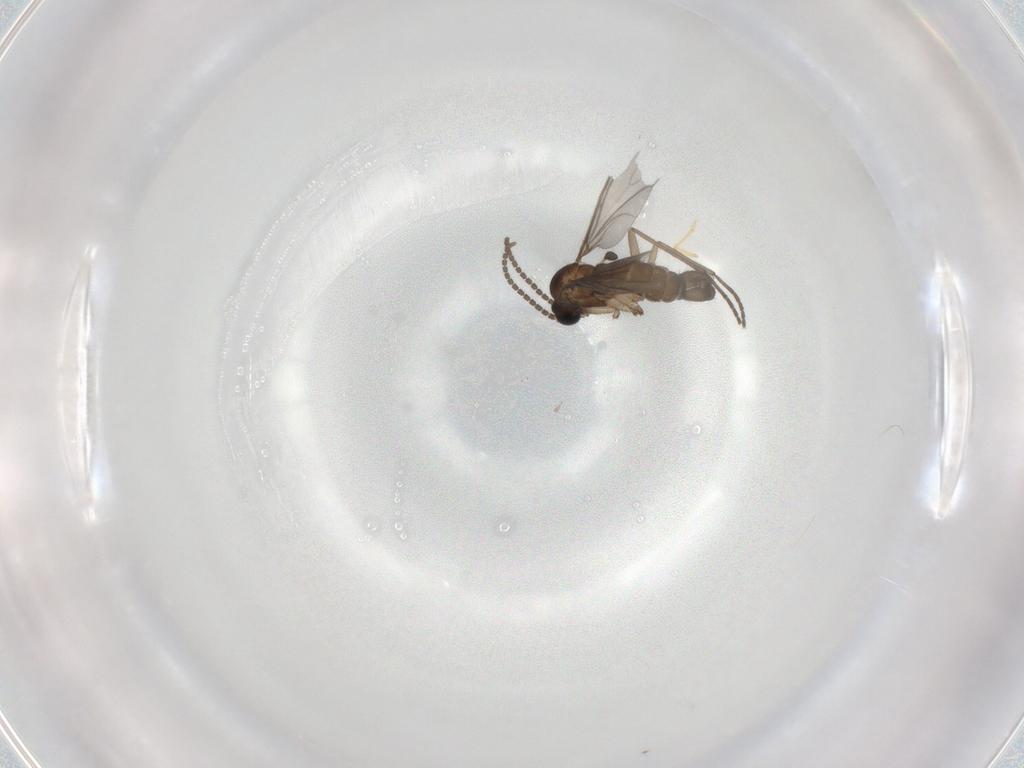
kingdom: Animalia
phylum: Arthropoda
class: Insecta
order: Diptera
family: Sciaridae
